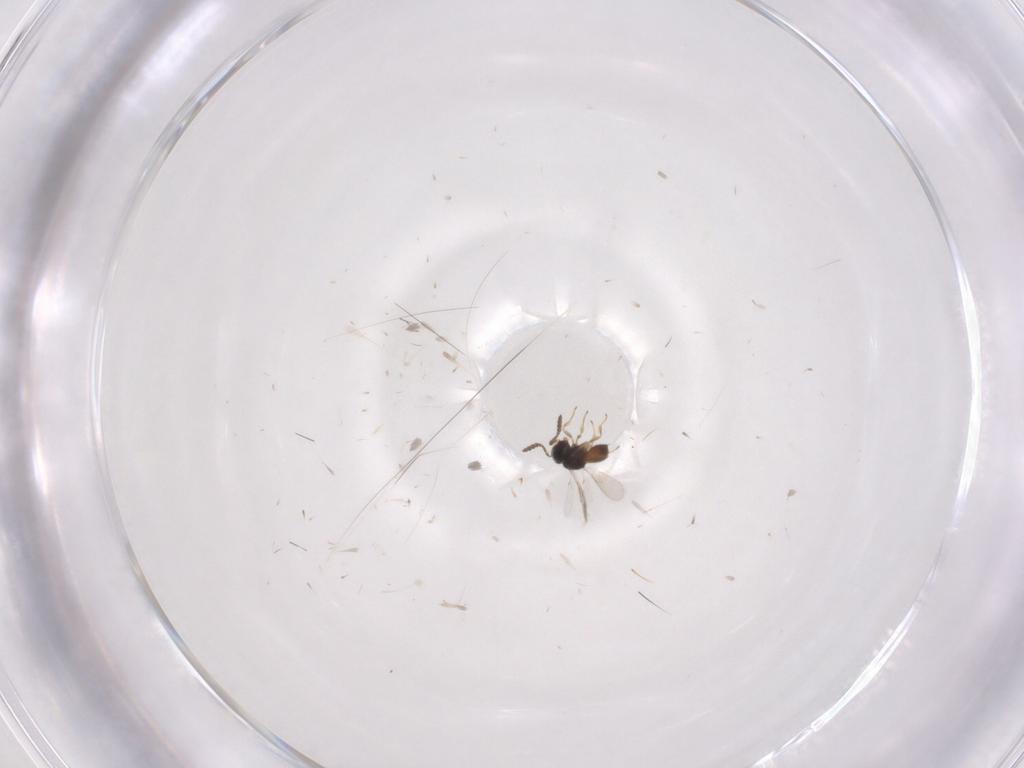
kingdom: Animalia
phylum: Arthropoda
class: Insecta
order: Hymenoptera
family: Scelionidae
